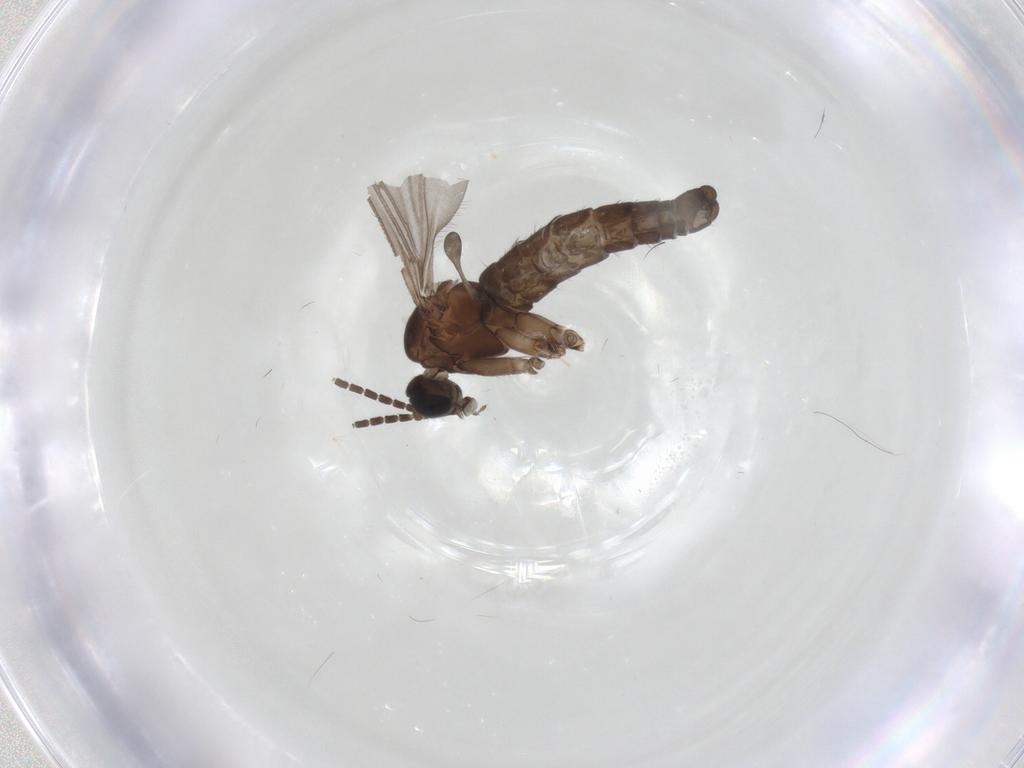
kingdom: Animalia
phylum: Arthropoda
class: Insecta
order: Diptera
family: Sciaridae
